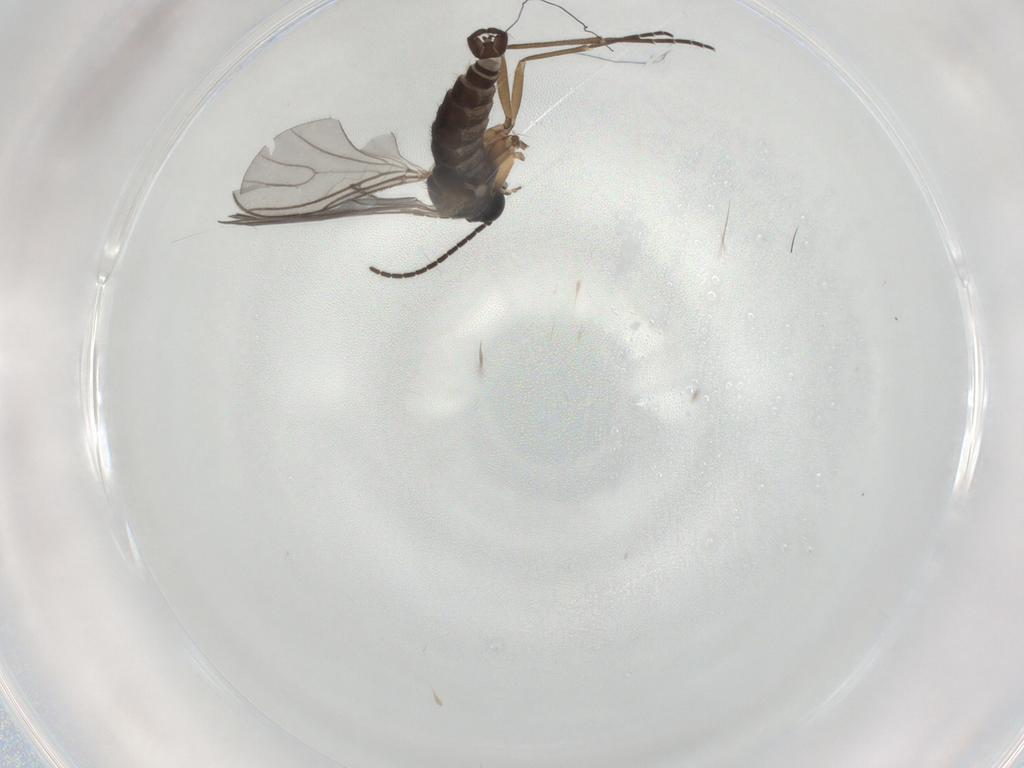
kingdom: Animalia
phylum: Arthropoda
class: Insecta
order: Diptera
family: Sciaridae
